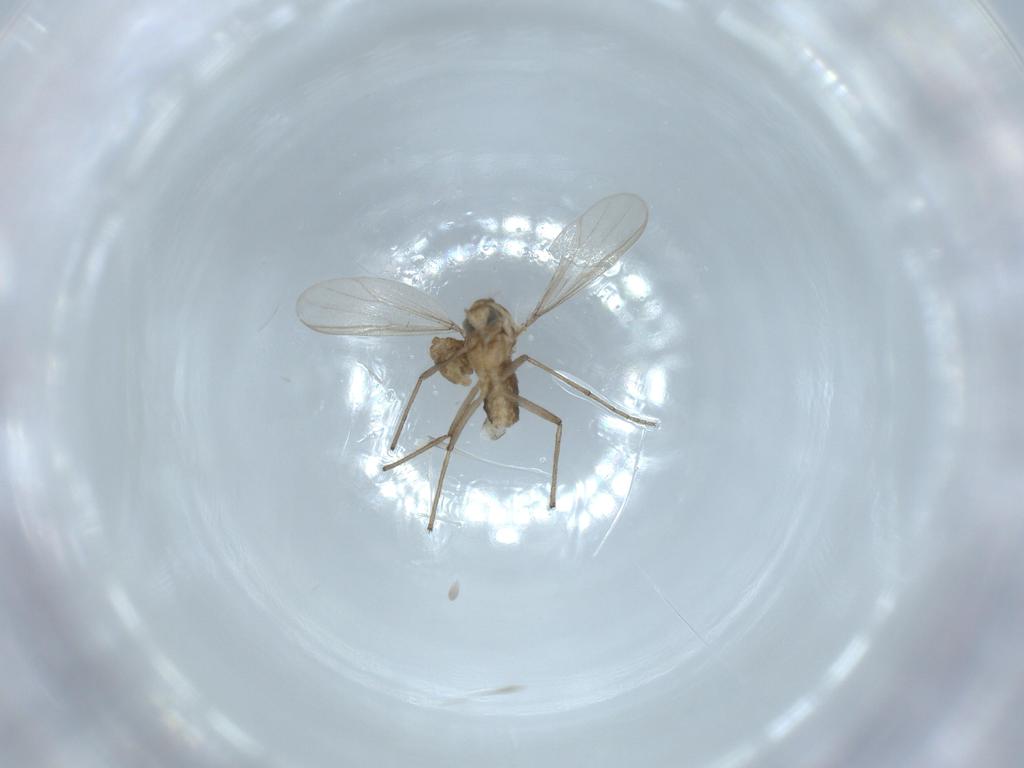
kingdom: Animalia
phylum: Arthropoda
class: Insecta
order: Diptera
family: Chironomidae
